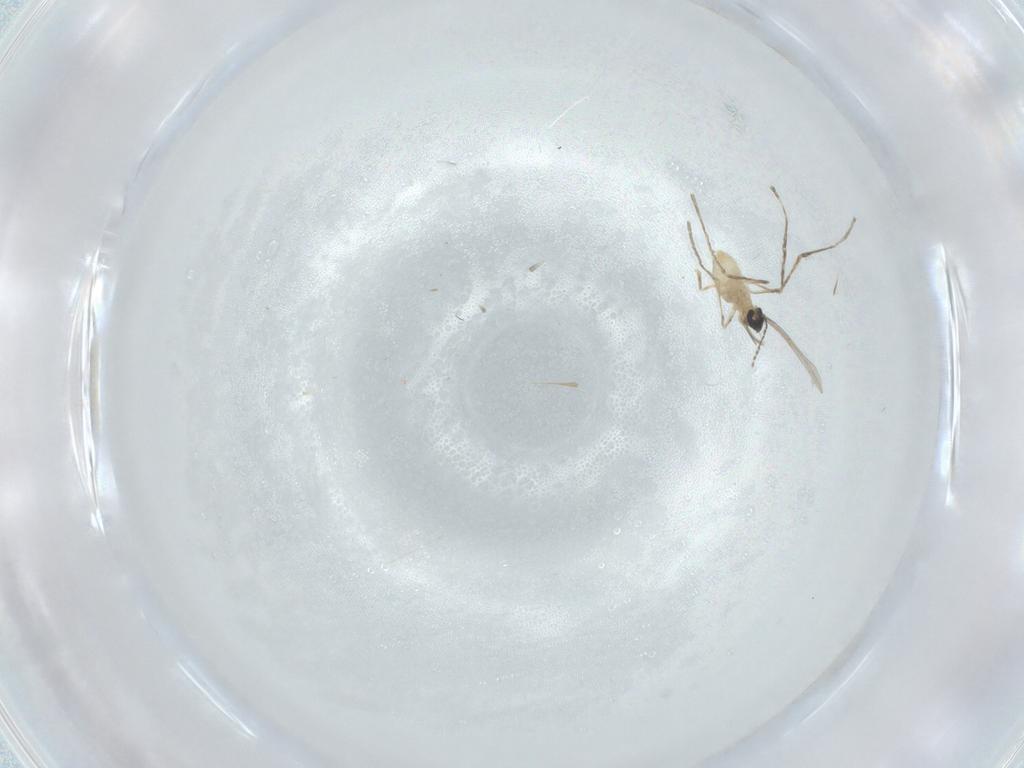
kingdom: Animalia
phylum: Arthropoda
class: Insecta
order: Diptera
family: Cecidomyiidae
